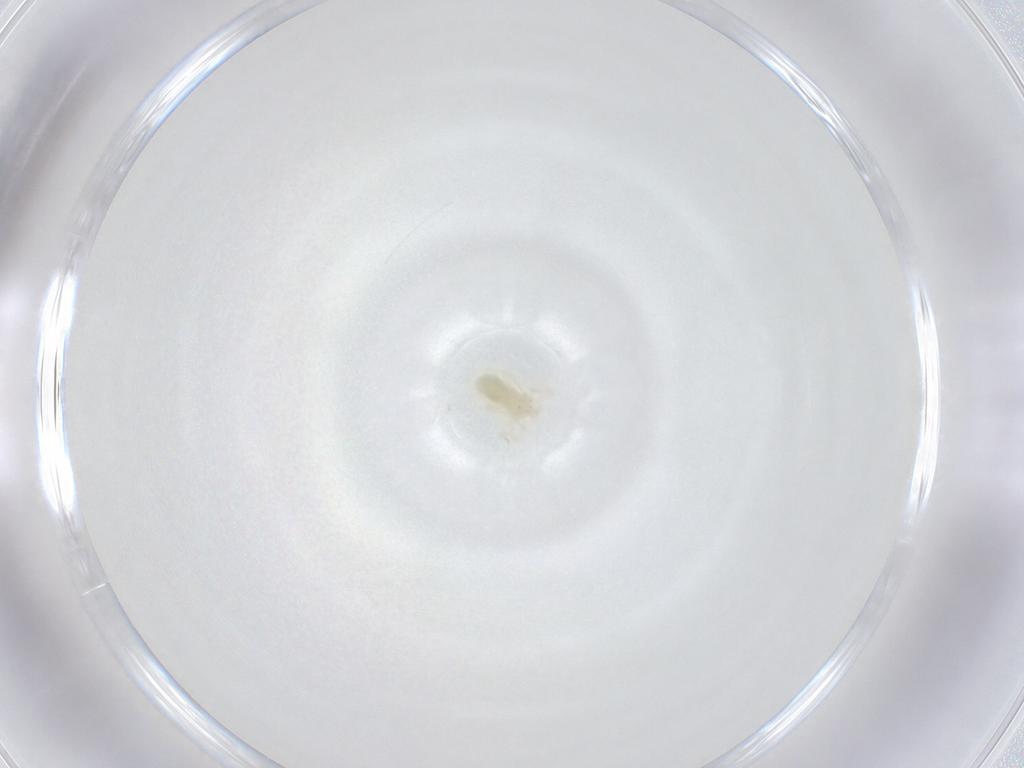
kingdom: Animalia
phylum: Arthropoda
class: Arachnida
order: Trombidiformes
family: Anystidae
